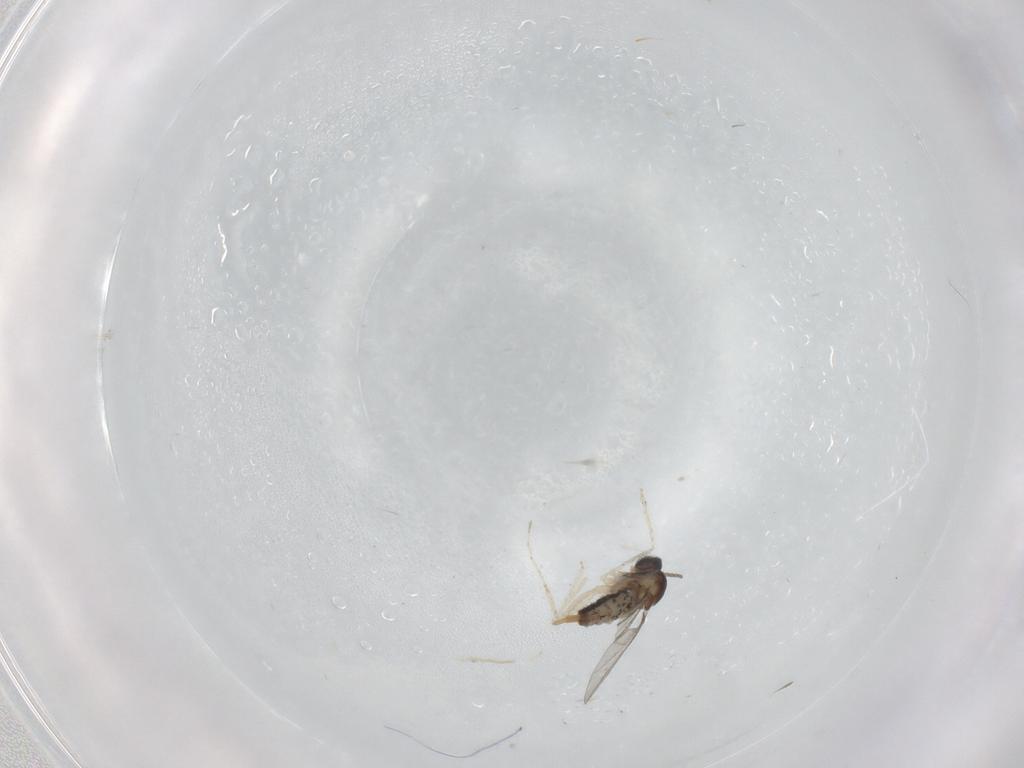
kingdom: Animalia
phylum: Arthropoda
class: Insecta
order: Diptera
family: Cecidomyiidae
